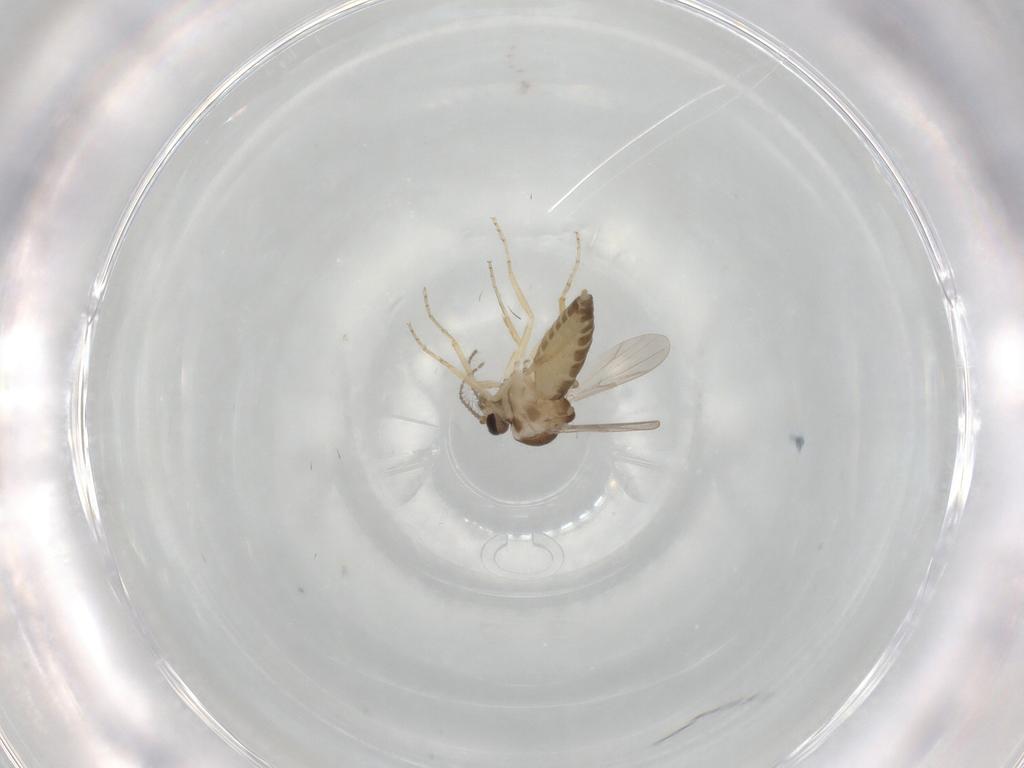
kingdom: Animalia
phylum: Arthropoda
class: Insecta
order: Diptera
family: Ceratopogonidae
